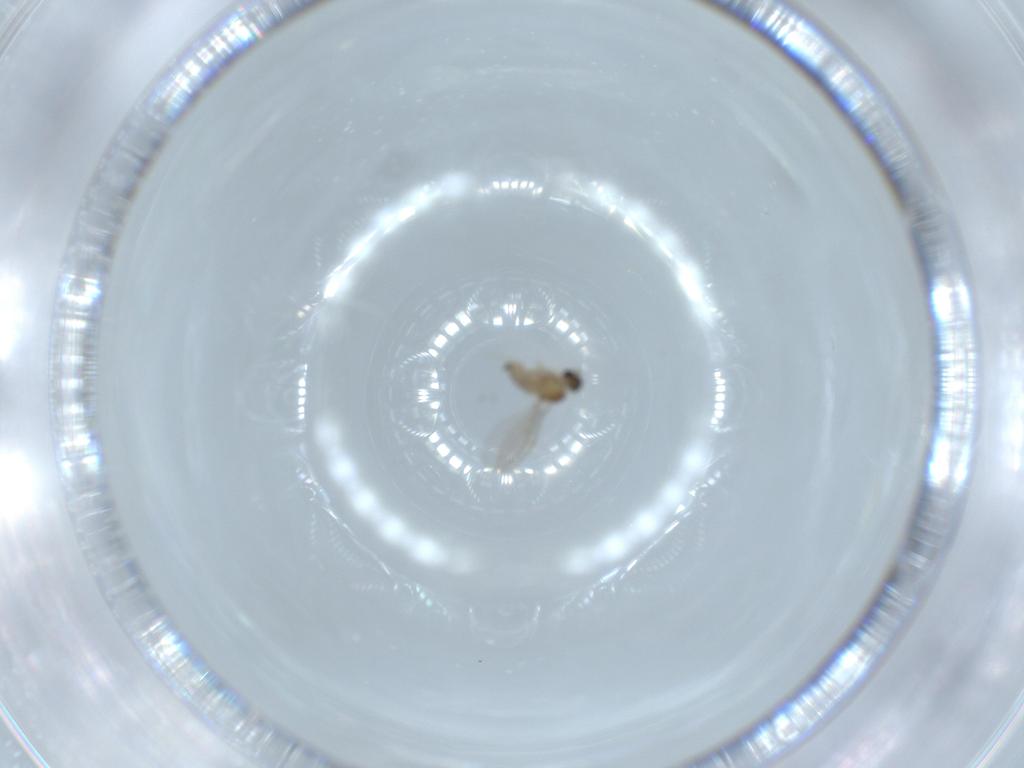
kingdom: Animalia
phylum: Arthropoda
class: Insecta
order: Diptera
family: Cecidomyiidae
